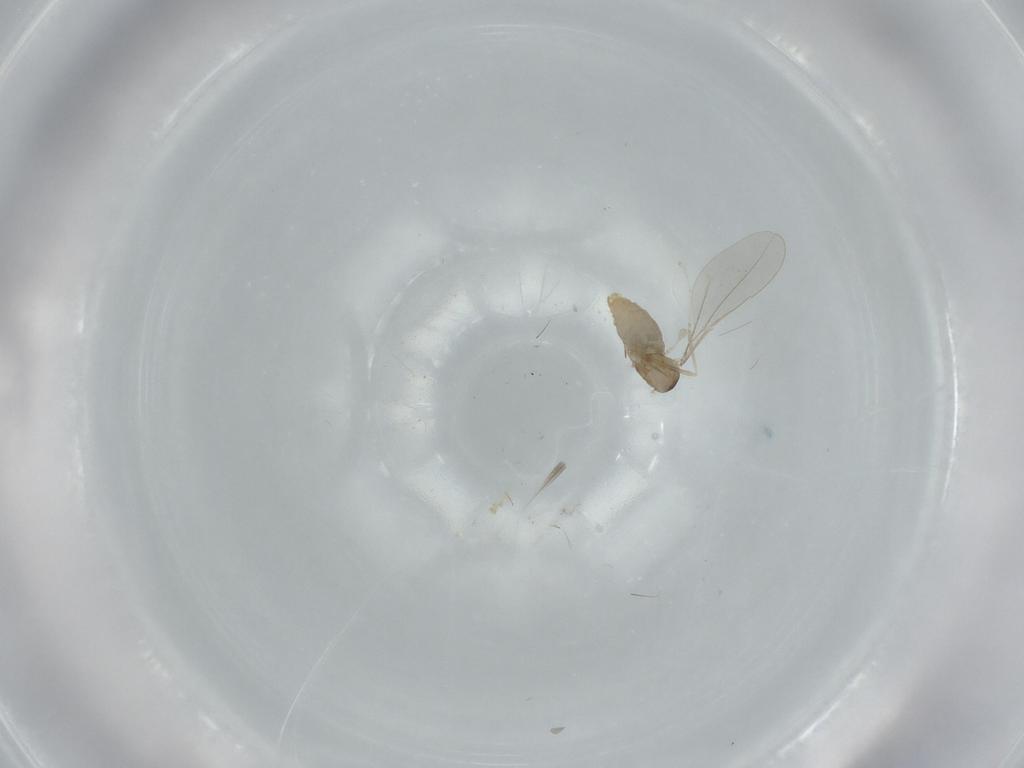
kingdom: Animalia
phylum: Arthropoda
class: Insecta
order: Diptera
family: Cecidomyiidae
